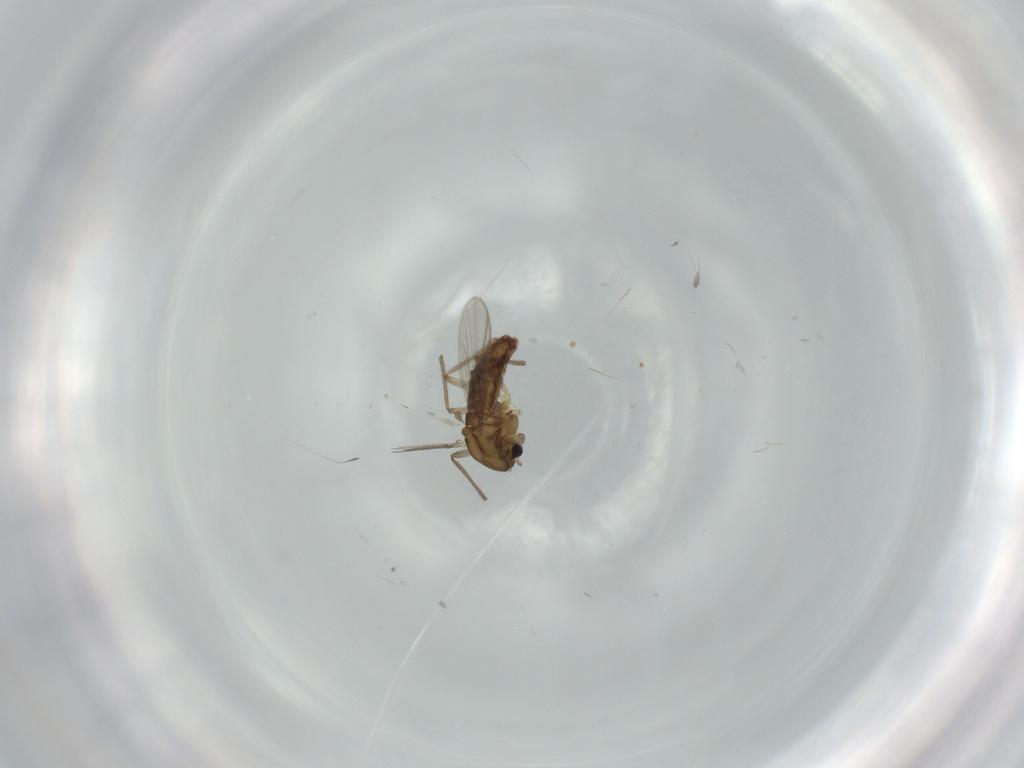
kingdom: Animalia
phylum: Arthropoda
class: Insecta
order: Diptera
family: Chironomidae
